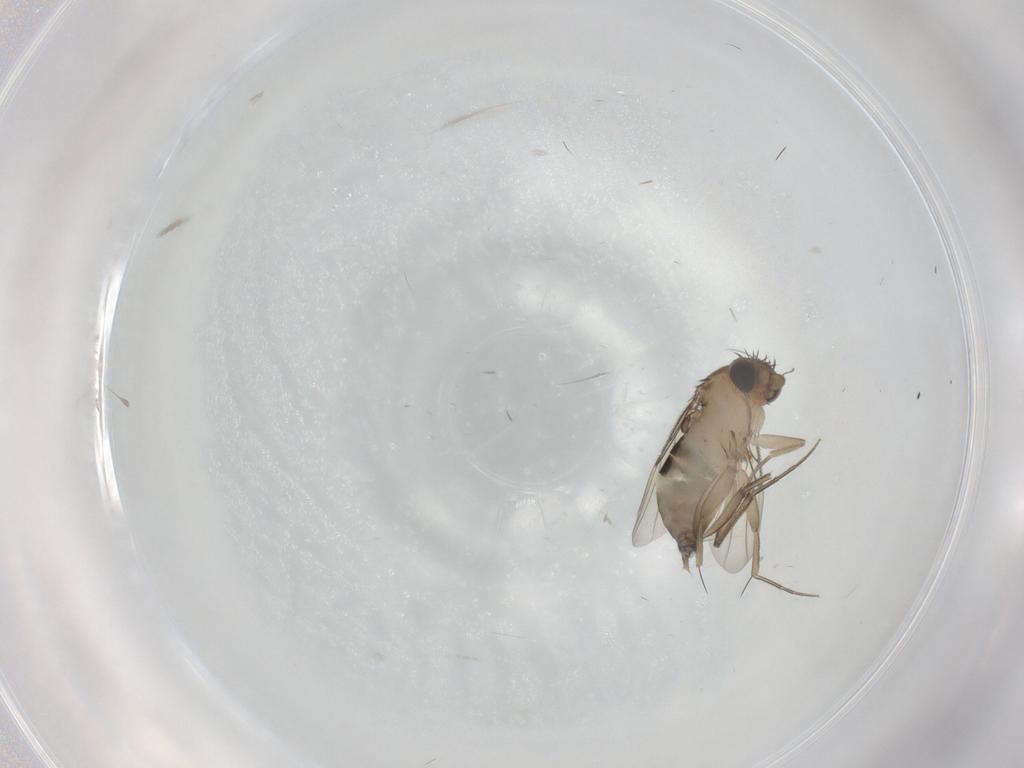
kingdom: Animalia
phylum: Arthropoda
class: Insecta
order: Diptera
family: Phoridae
